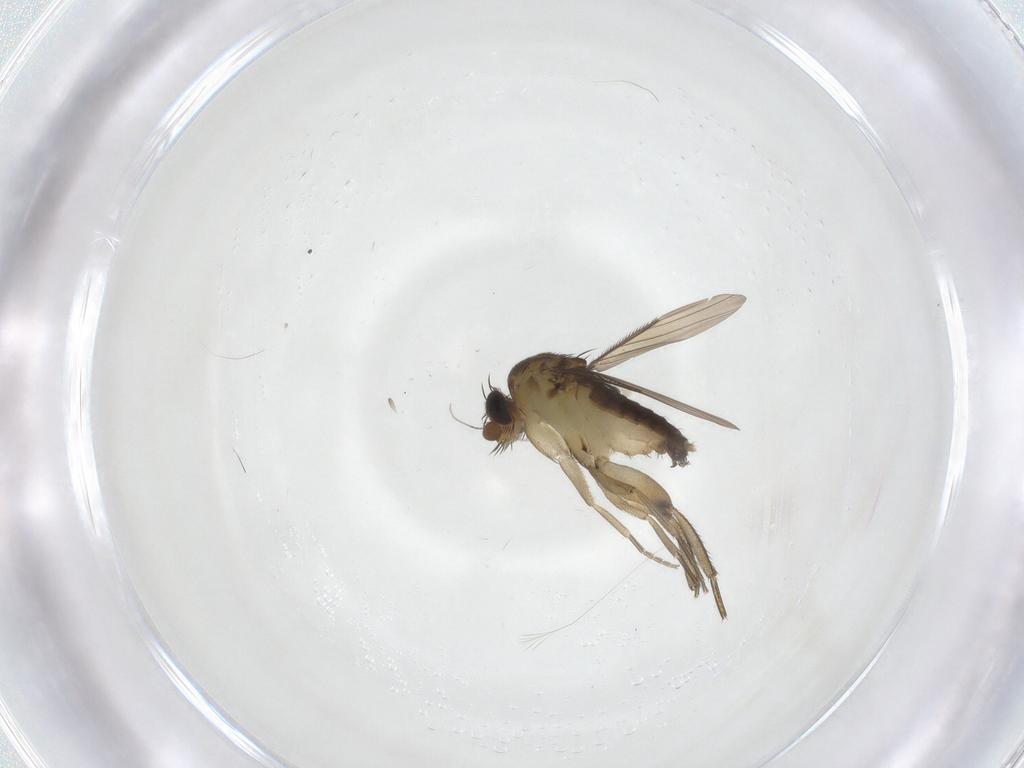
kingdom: Animalia
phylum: Arthropoda
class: Insecta
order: Diptera
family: Phoridae
